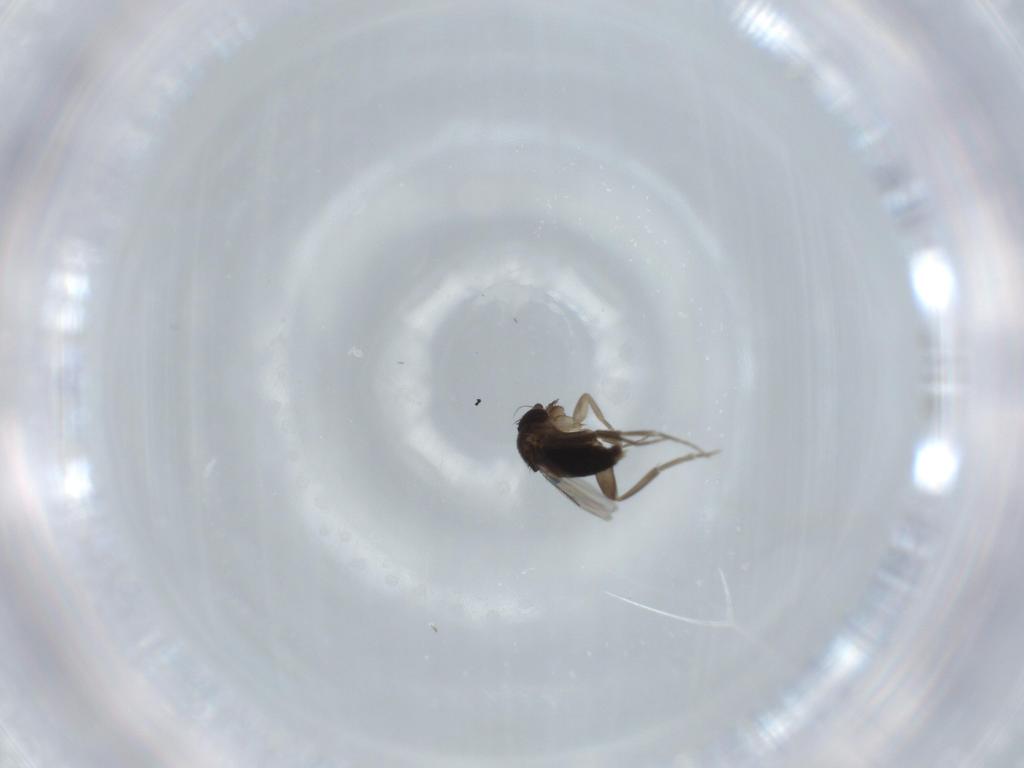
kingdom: Animalia
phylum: Arthropoda
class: Insecta
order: Diptera
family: Phoridae
